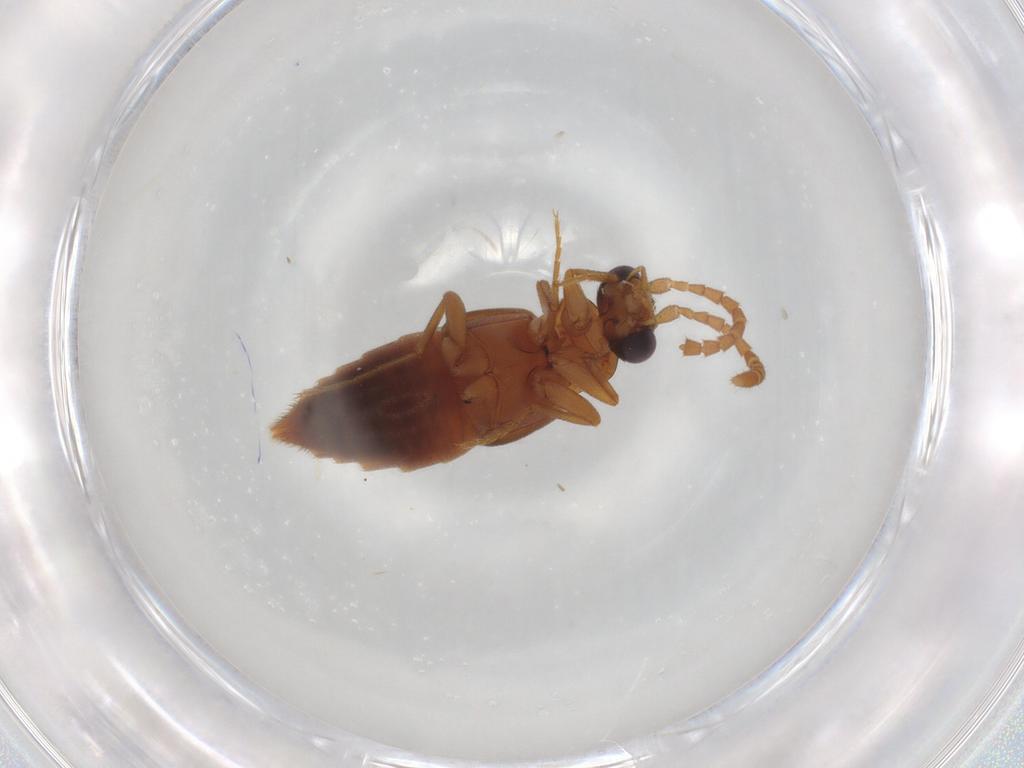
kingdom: Animalia
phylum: Arthropoda
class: Insecta
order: Coleoptera
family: Staphylinidae
